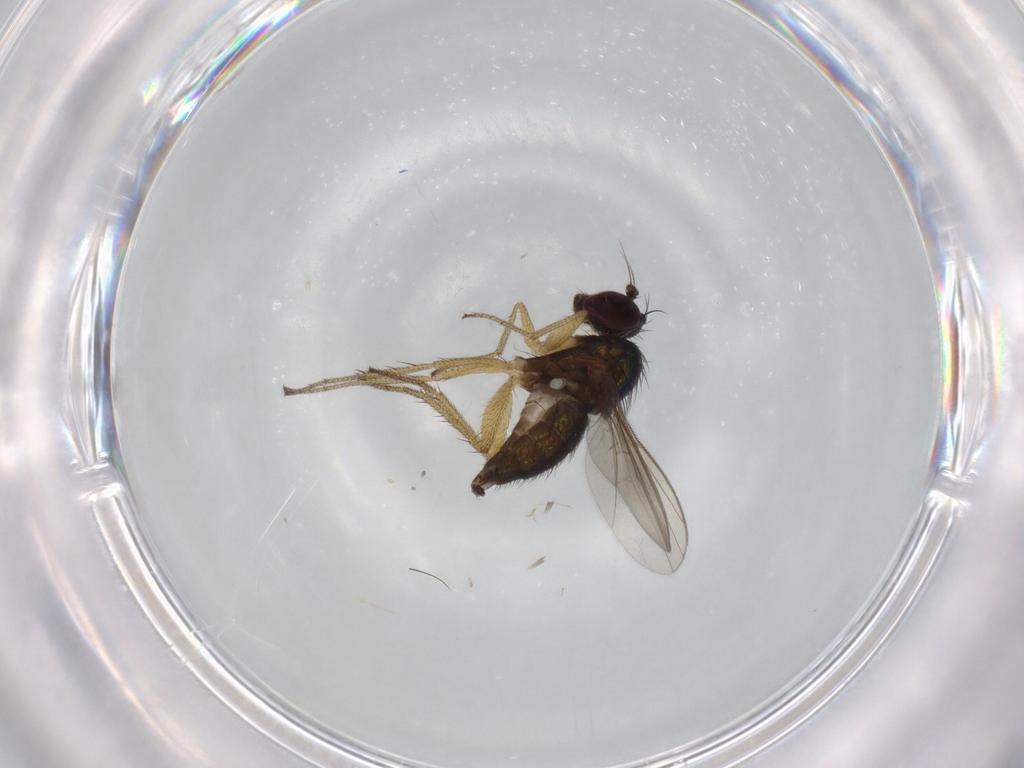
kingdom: Animalia
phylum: Arthropoda
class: Insecta
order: Diptera
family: Dolichopodidae
